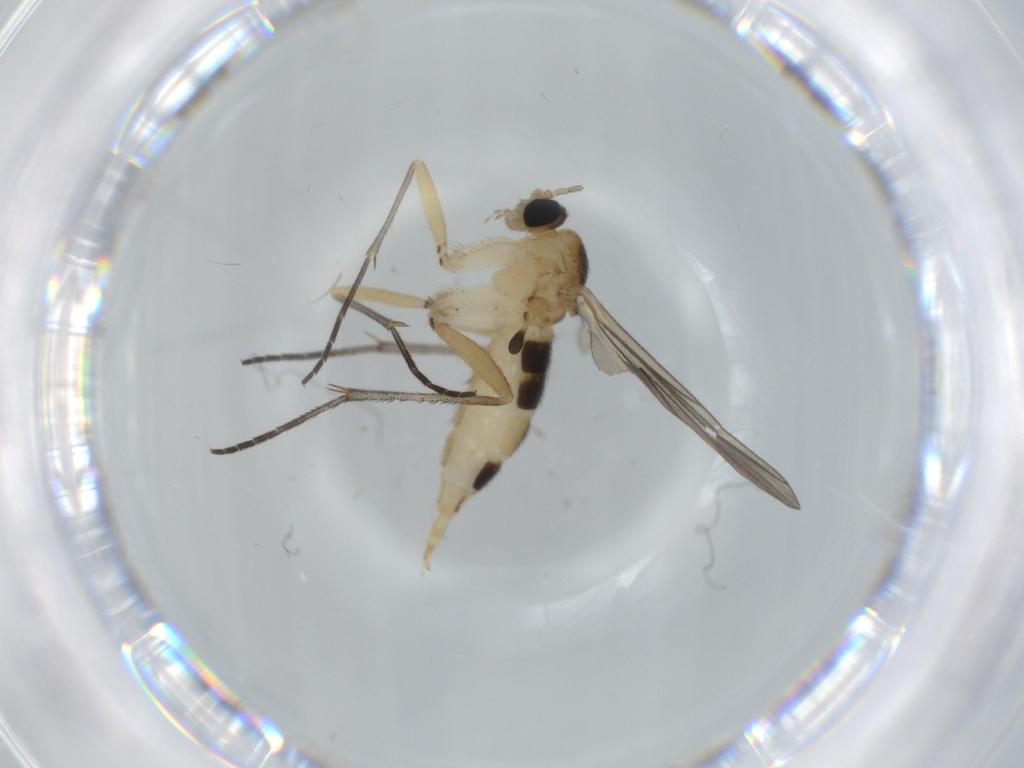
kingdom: Animalia
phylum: Arthropoda
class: Insecta
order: Diptera
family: Sciaridae
